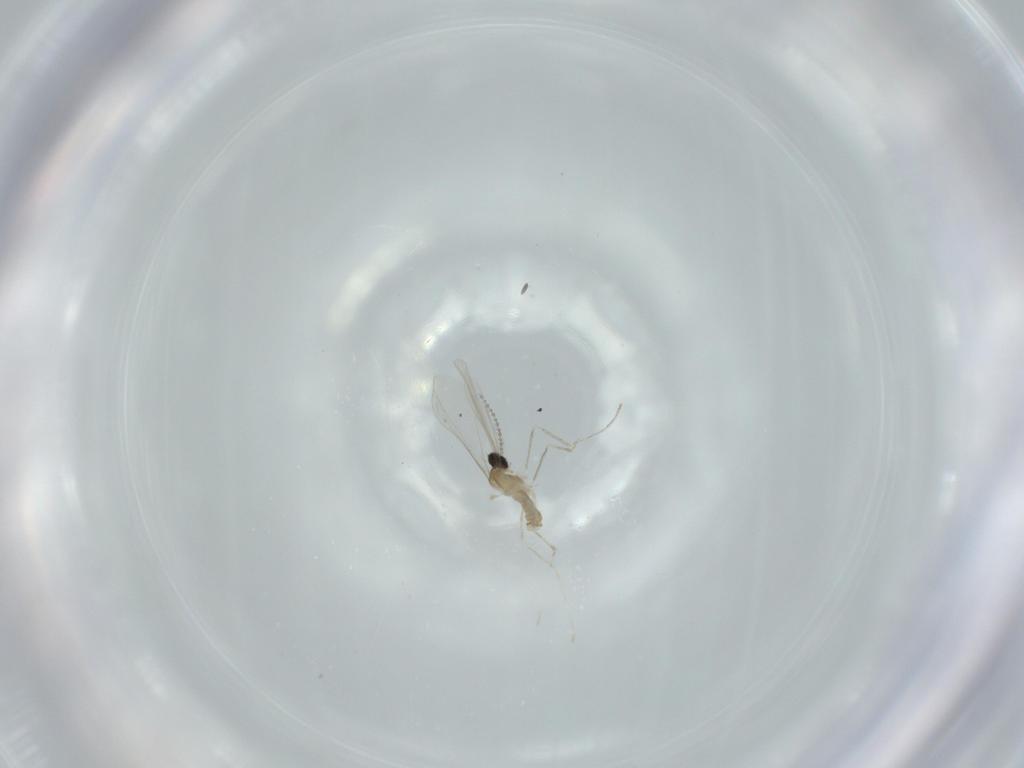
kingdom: Animalia
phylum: Arthropoda
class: Insecta
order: Diptera
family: Cecidomyiidae
